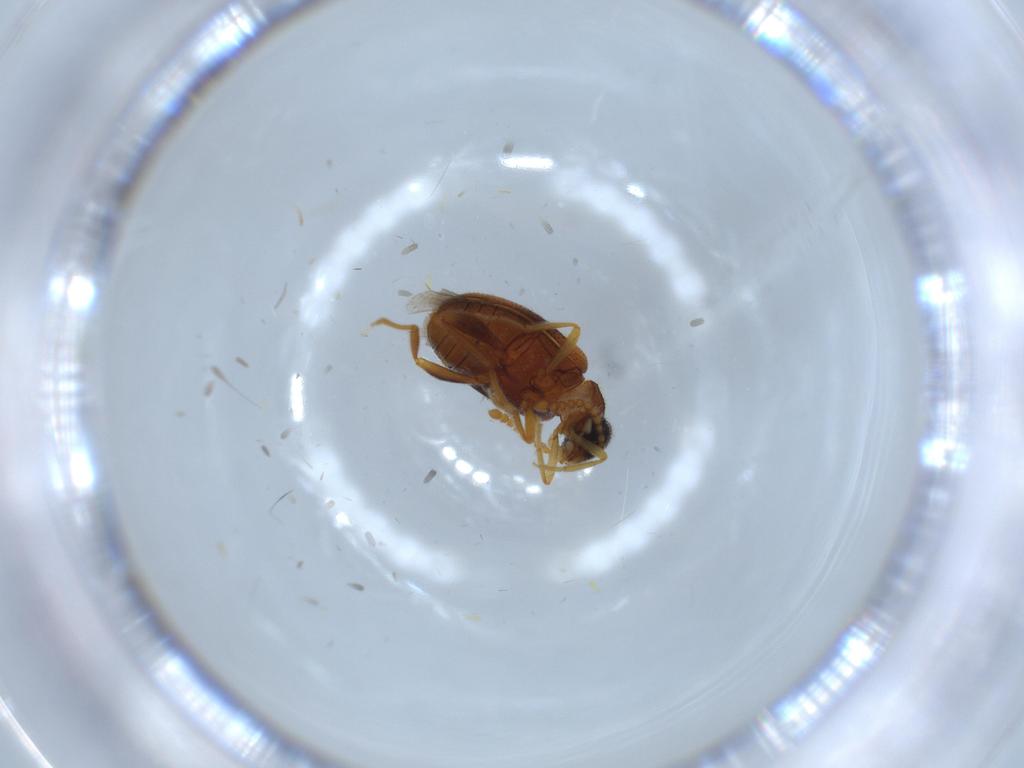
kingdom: Animalia
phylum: Arthropoda
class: Insecta
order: Coleoptera
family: Aderidae
